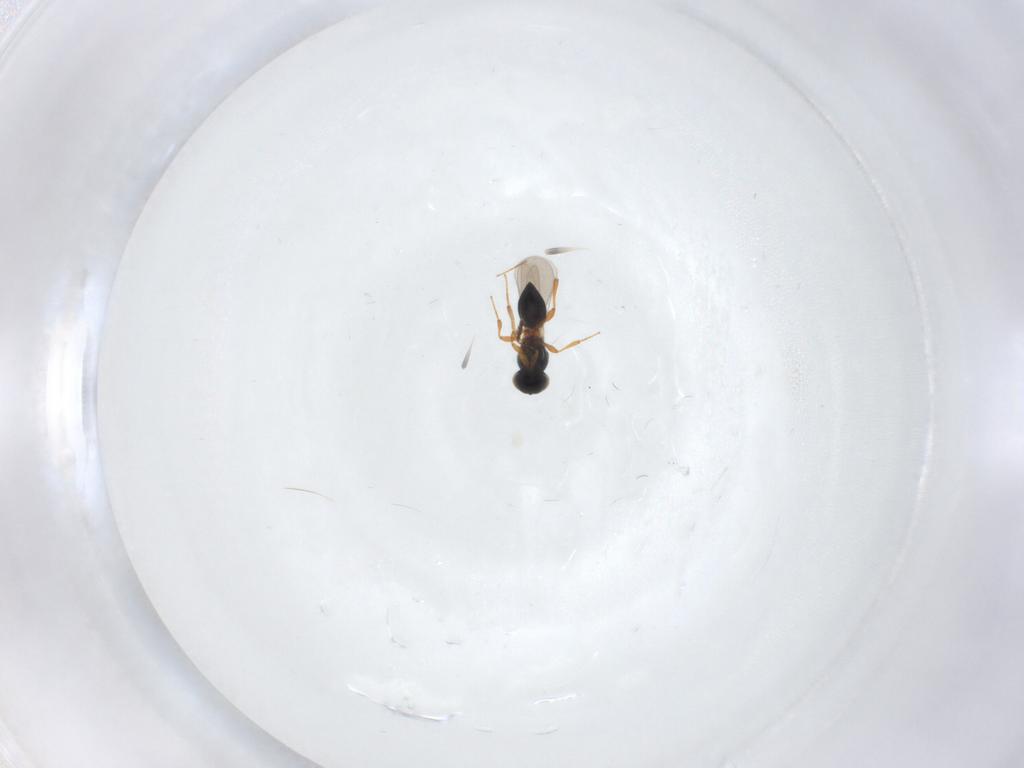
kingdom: Animalia
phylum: Arthropoda
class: Insecta
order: Hymenoptera
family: Platygastridae
